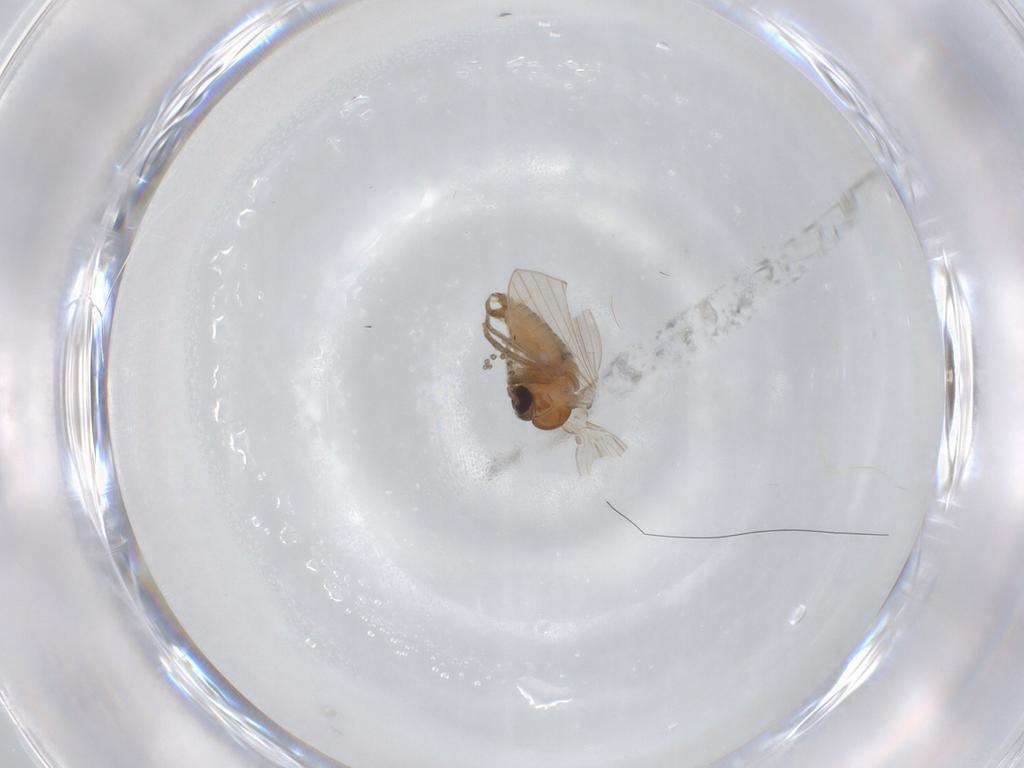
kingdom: Animalia
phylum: Arthropoda
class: Insecta
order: Diptera
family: Psychodidae
